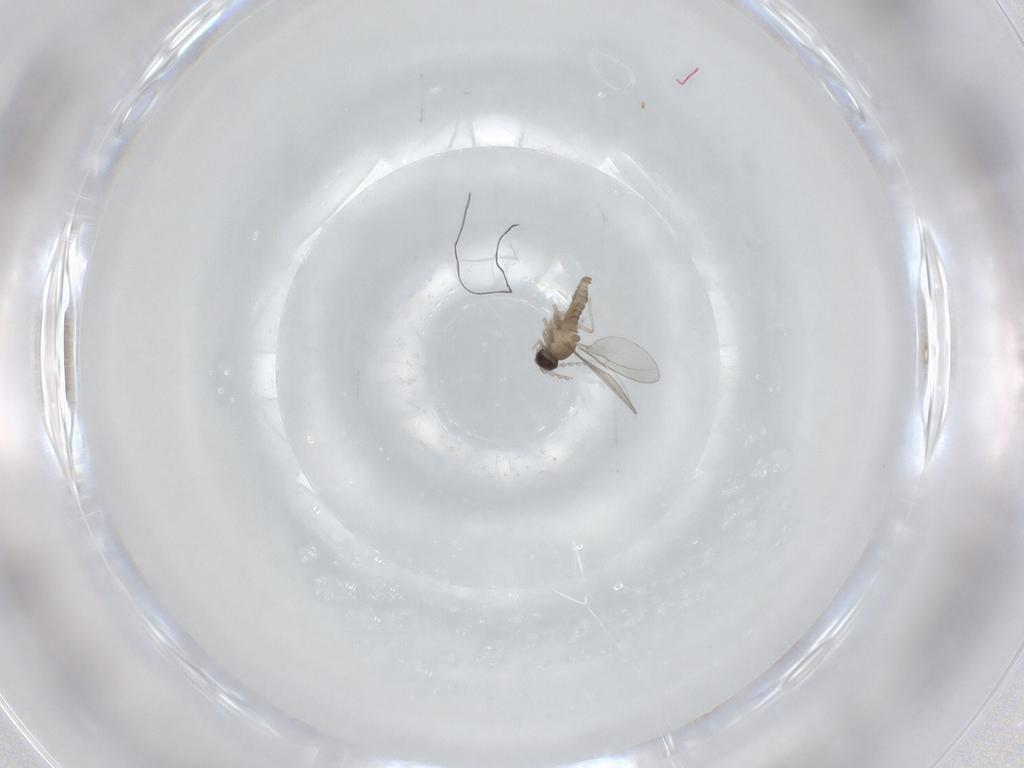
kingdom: Animalia
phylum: Arthropoda
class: Insecta
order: Diptera
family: Cecidomyiidae
